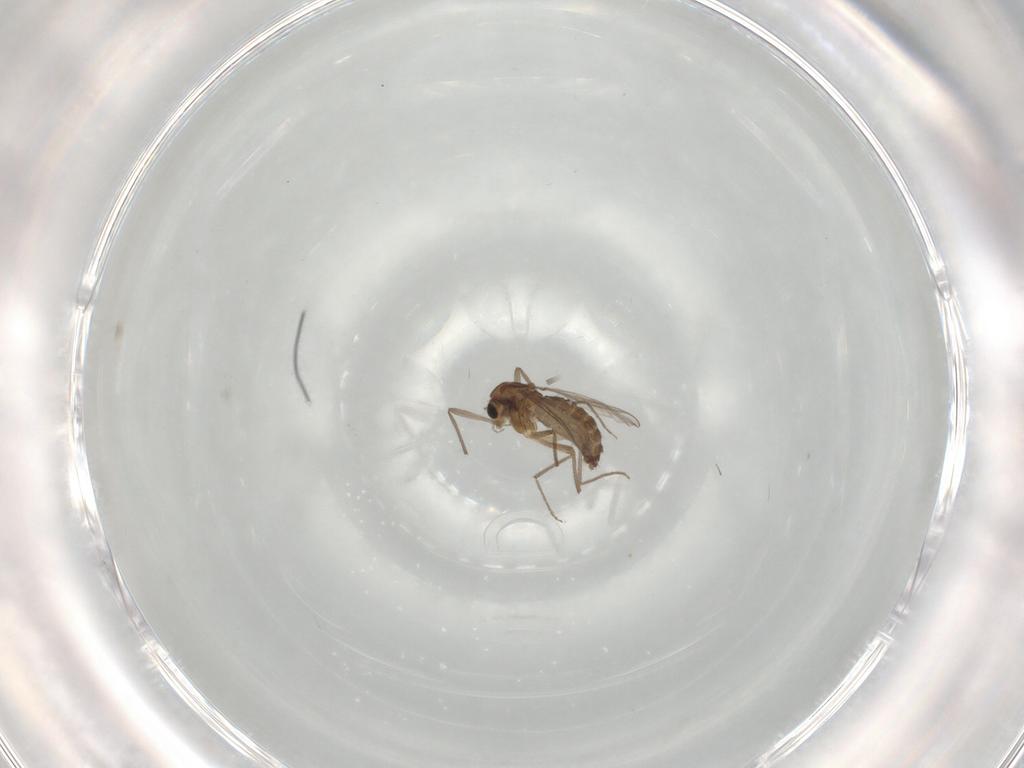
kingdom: Animalia
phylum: Arthropoda
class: Insecta
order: Diptera
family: Chironomidae
